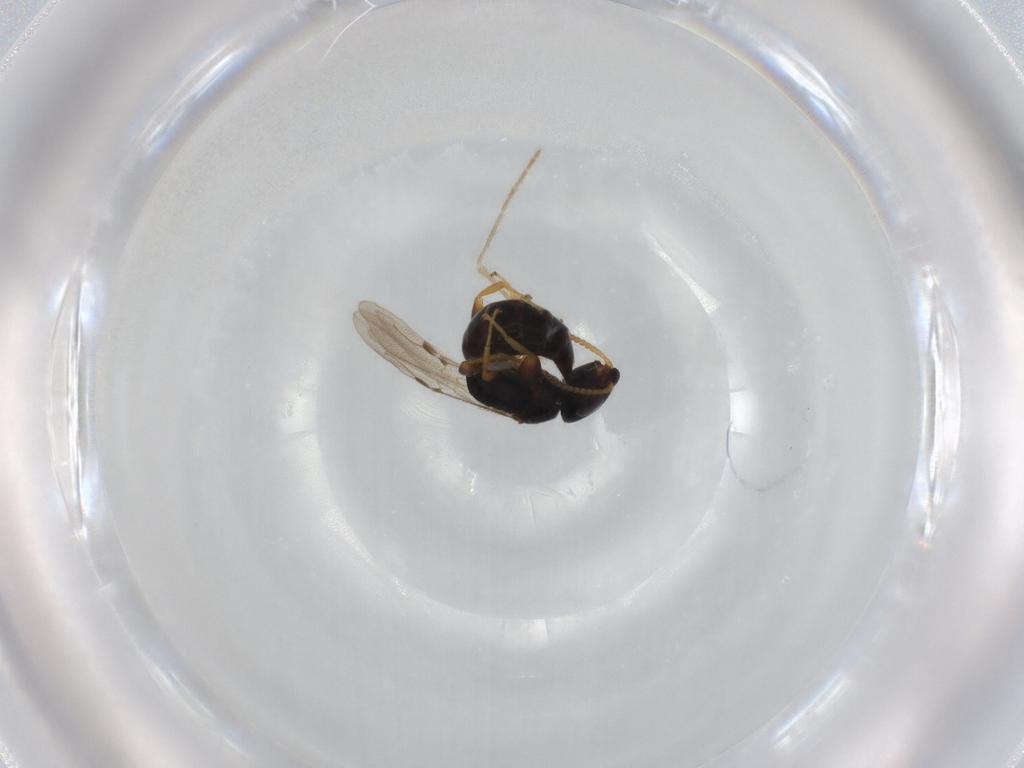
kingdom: Animalia
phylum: Arthropoda
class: Insecta
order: Hymenoptera
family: Bethylidae
